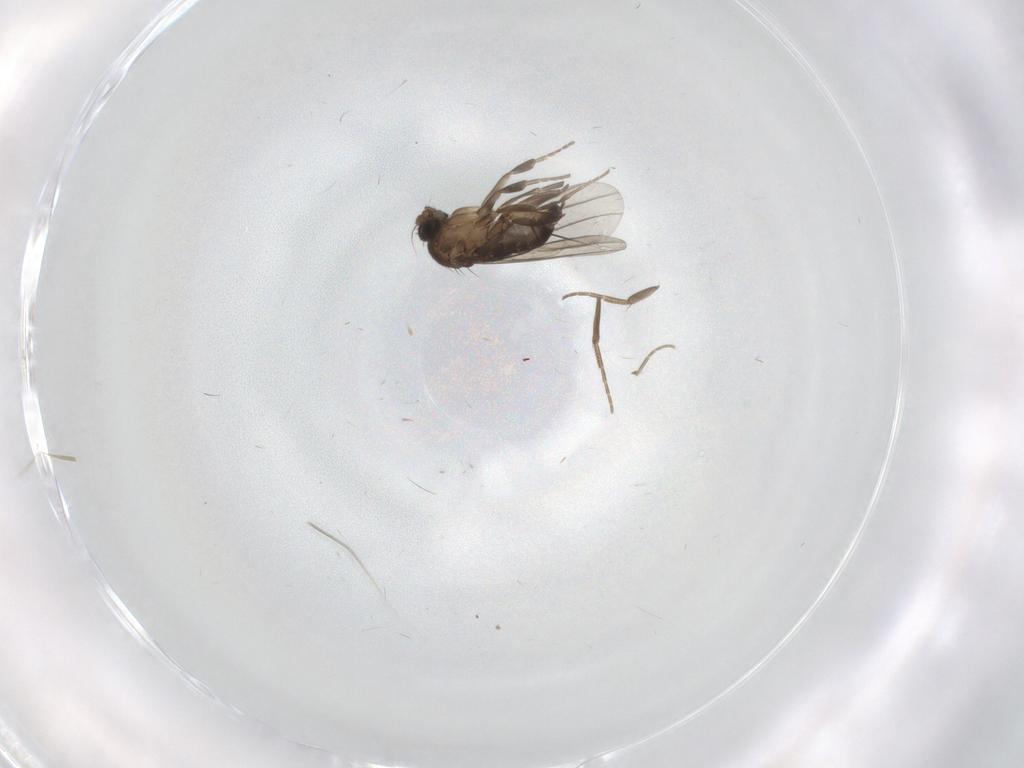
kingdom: Animalia
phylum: Arthropoda
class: Insecta
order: Diptera
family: Phoridae
